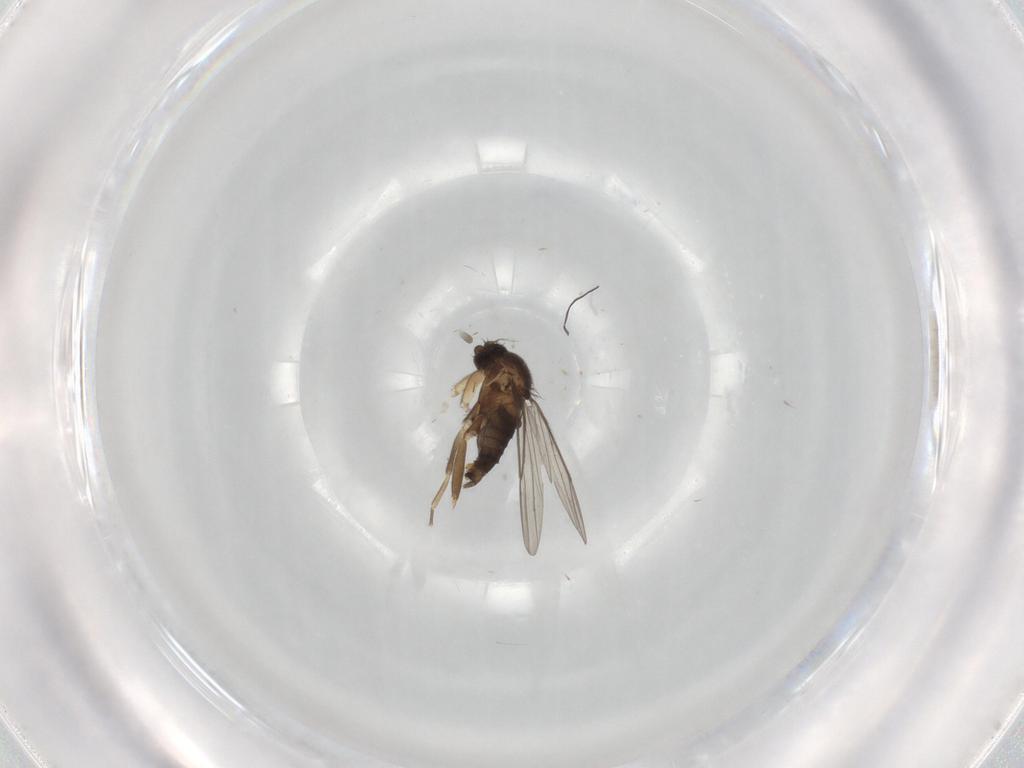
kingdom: Animalia
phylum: Arthropoda
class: Insecta
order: Diptera
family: Phoridae
